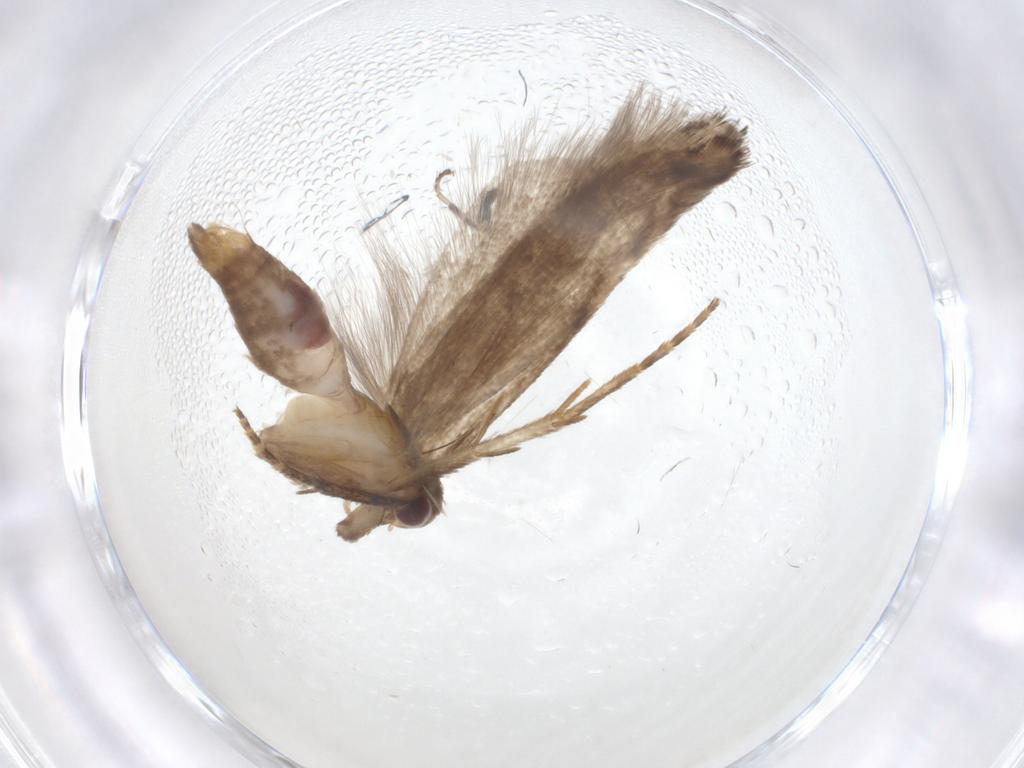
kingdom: Animalia
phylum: Arthropoda
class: Insecta
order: Lepidoptera
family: Gelechiidae
